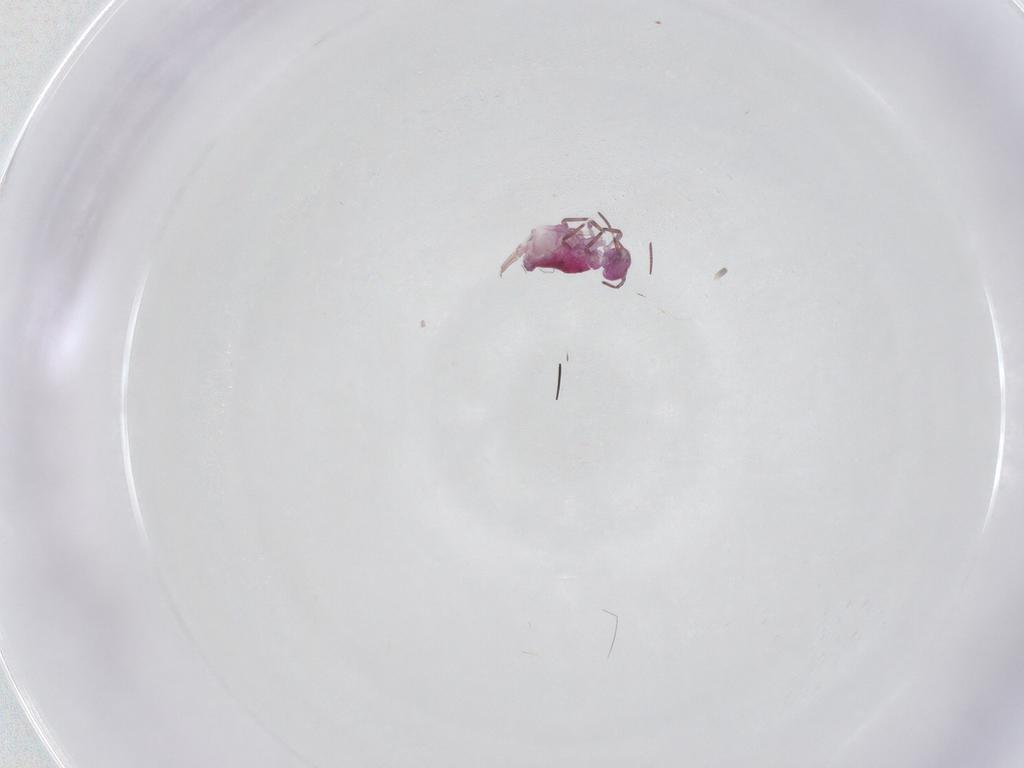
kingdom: Animalia
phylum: Arthropoda
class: Collembola
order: Symphypleona
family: Sminthuridae
